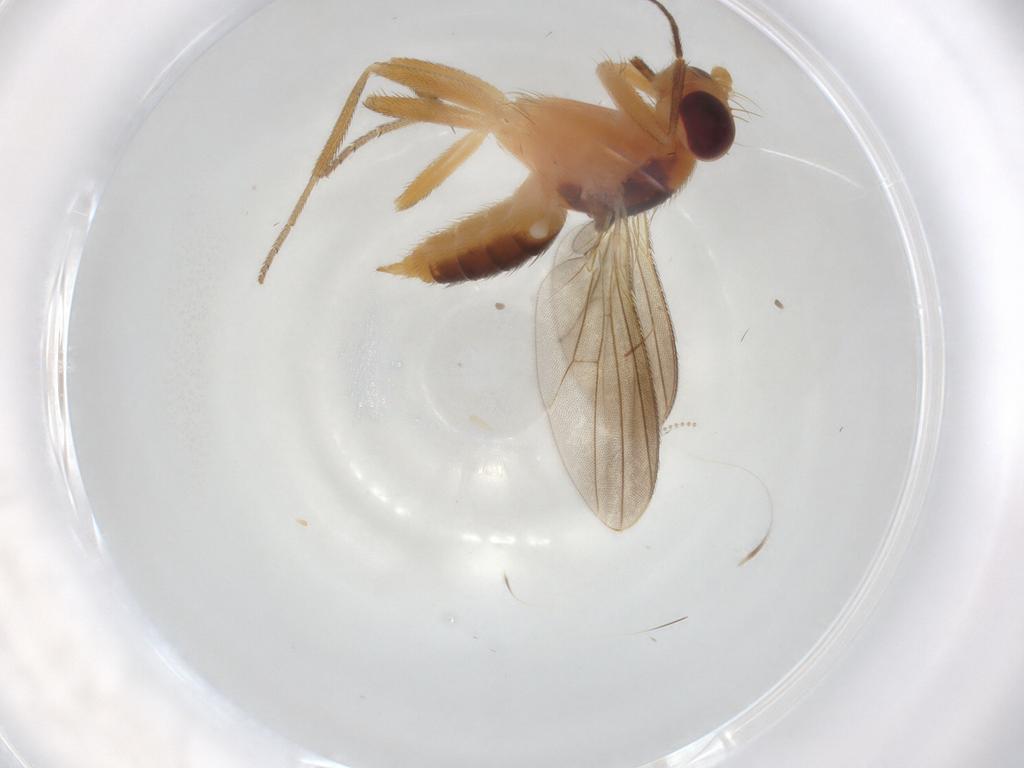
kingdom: Animalia
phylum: Arthropoda
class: Insecta
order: Diptera
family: Agromyzidae
